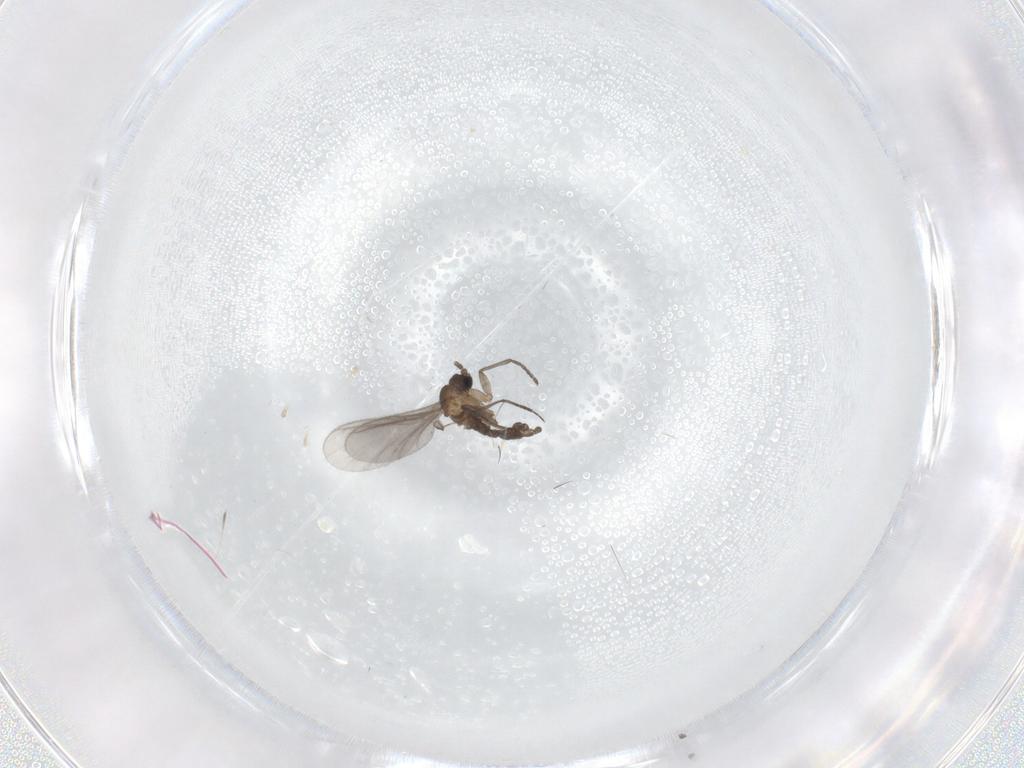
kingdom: Animalia
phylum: Arthropoda
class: Insecta
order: Diptera
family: Sciaridae
